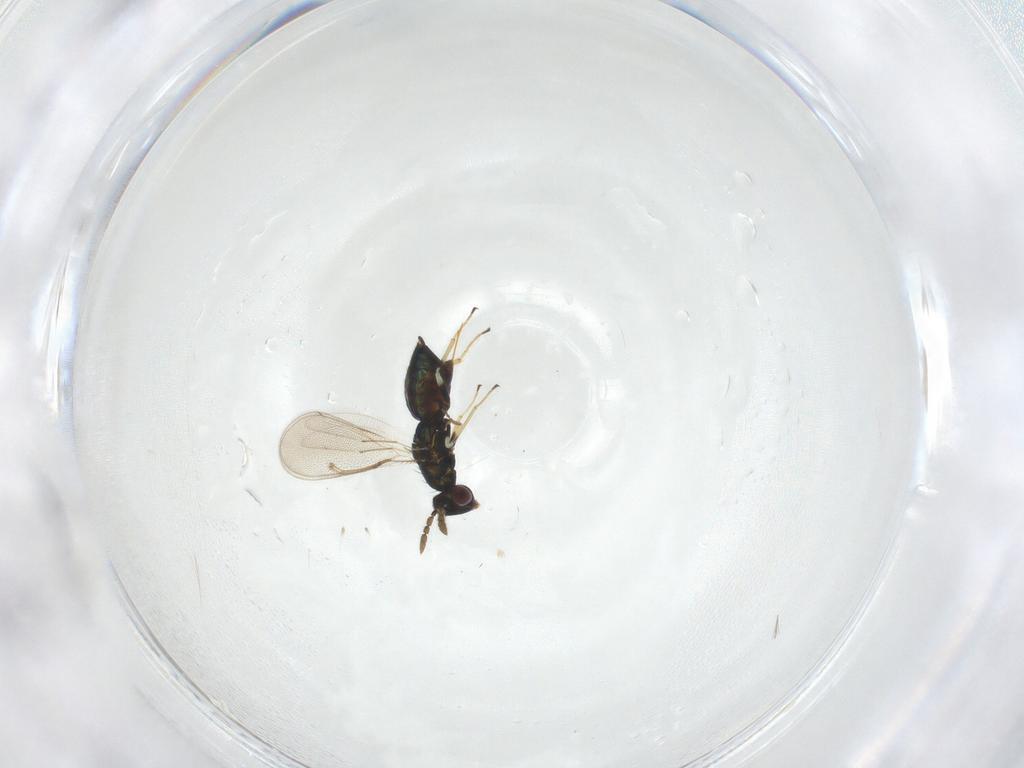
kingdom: Animalia
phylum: Arthropoda
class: Insecta
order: Hymenoptera
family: Eulophidae
